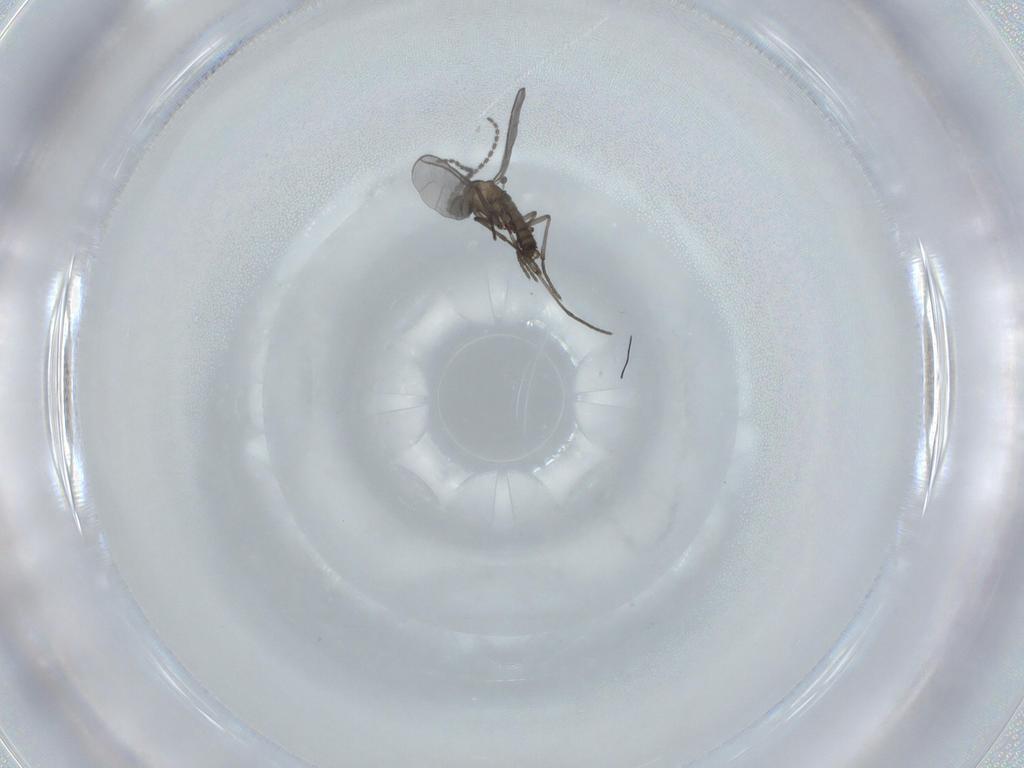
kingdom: Animalia
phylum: Arthropoda
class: Insecta
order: Diptera
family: Sciaridae
